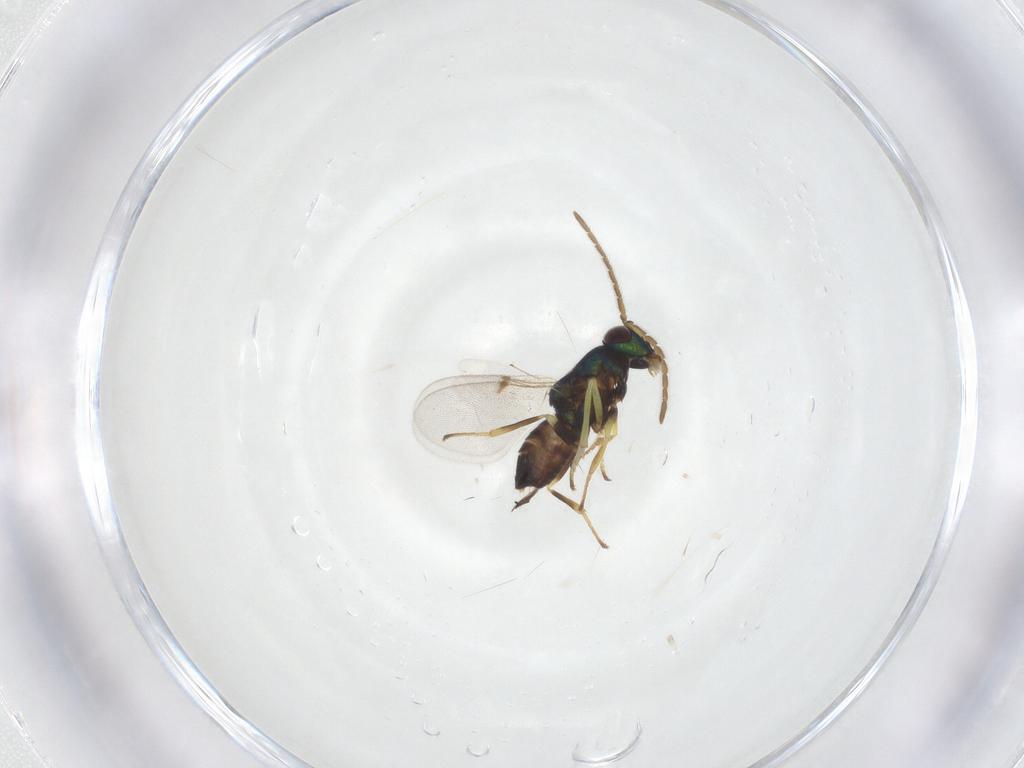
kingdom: Animalia
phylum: Arthropoda
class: Insecta
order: Hymenoptera
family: Encyrtidae
